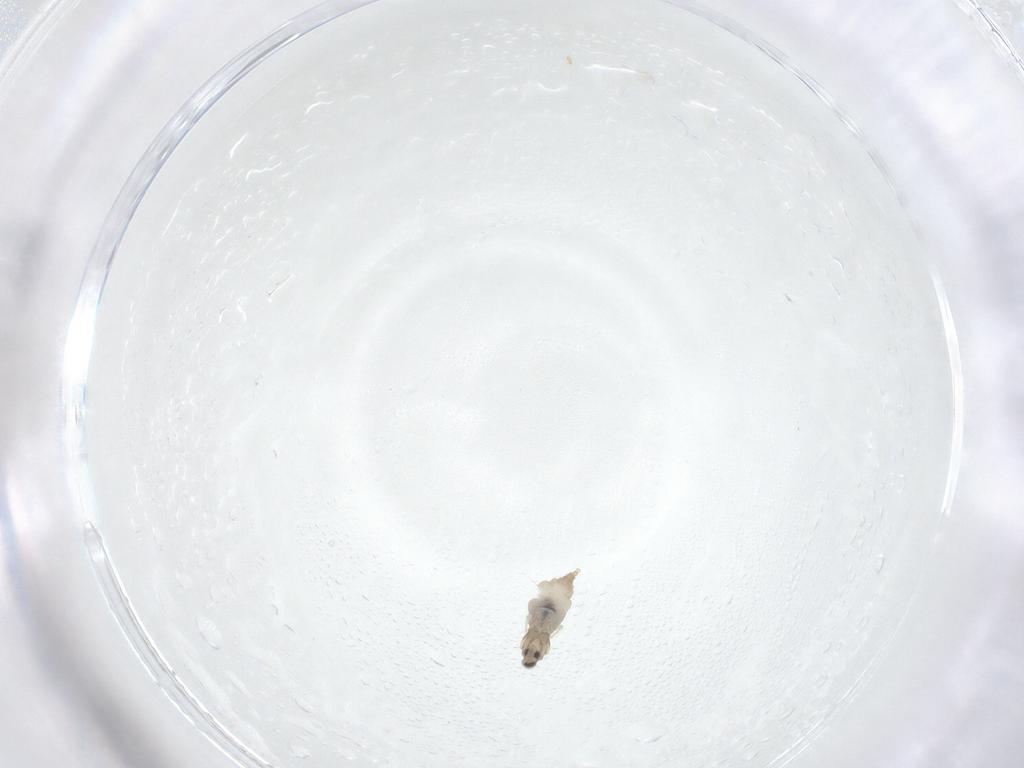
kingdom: Animalia
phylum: Arthropoda
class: Insecta
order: Diptera
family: Cecidomyiidae
